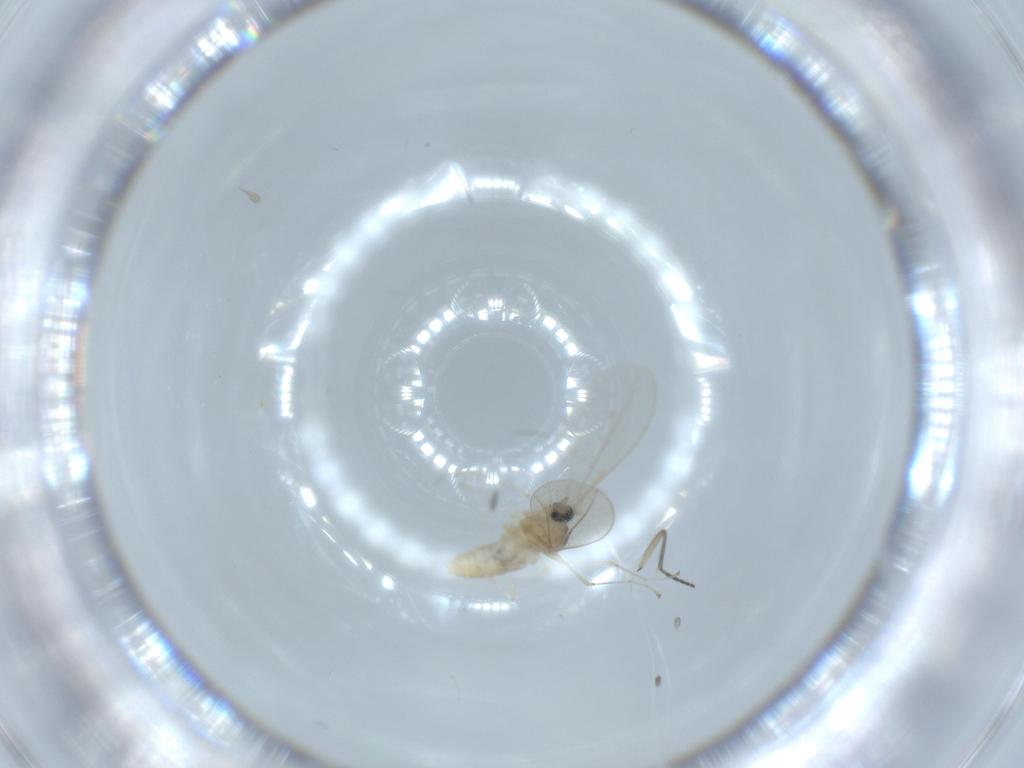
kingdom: Animalia
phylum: Arthropoda
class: Insecta
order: Diptera
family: Cecidomyiidae
